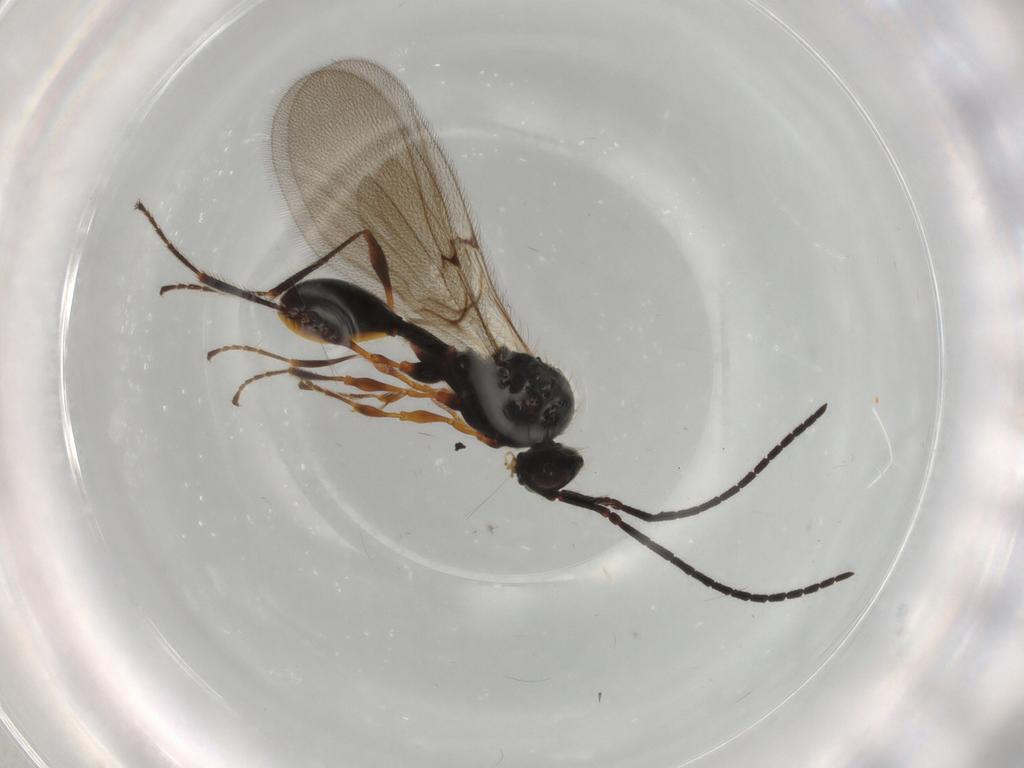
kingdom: Animalia
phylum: Arthropoda
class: Insecta
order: Hymenoptera
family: Diapriidae
